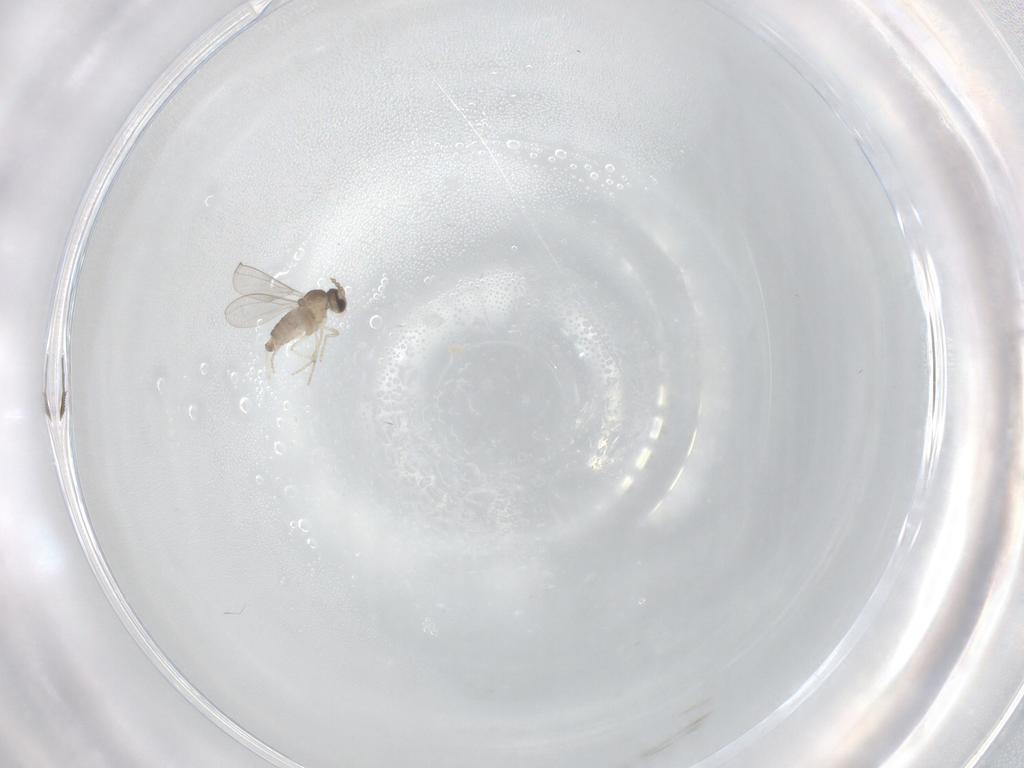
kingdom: Animalia
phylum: Arthropoda
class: Insecta
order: Diptera
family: Cecidomyiidae
